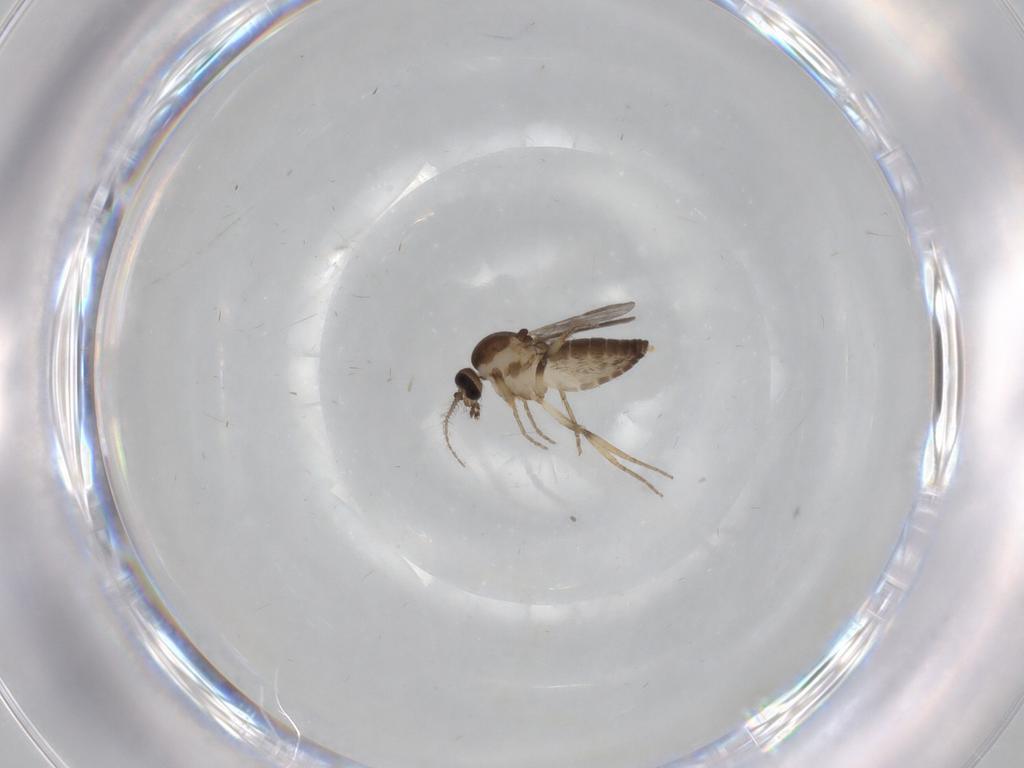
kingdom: Animalia
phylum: Arthropoda
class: Insecta
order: Diptera
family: Ceratopogonidae
